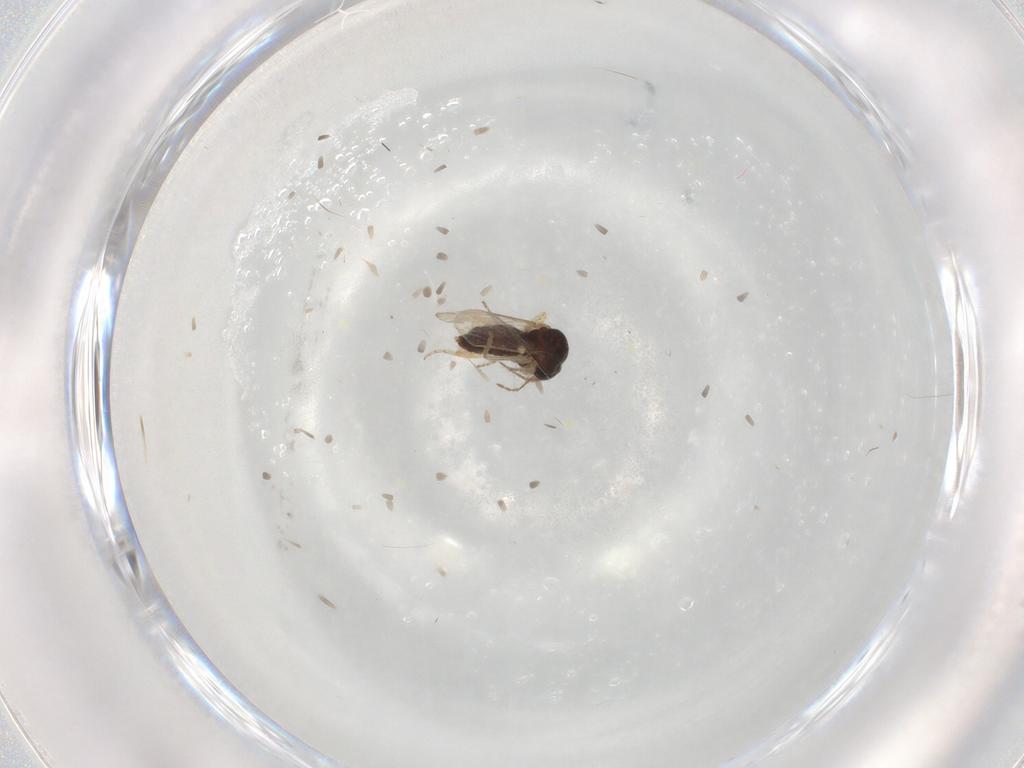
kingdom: Animalia
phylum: Arthropoda
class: Insecta
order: Diptera
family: Ceratopogonidae
